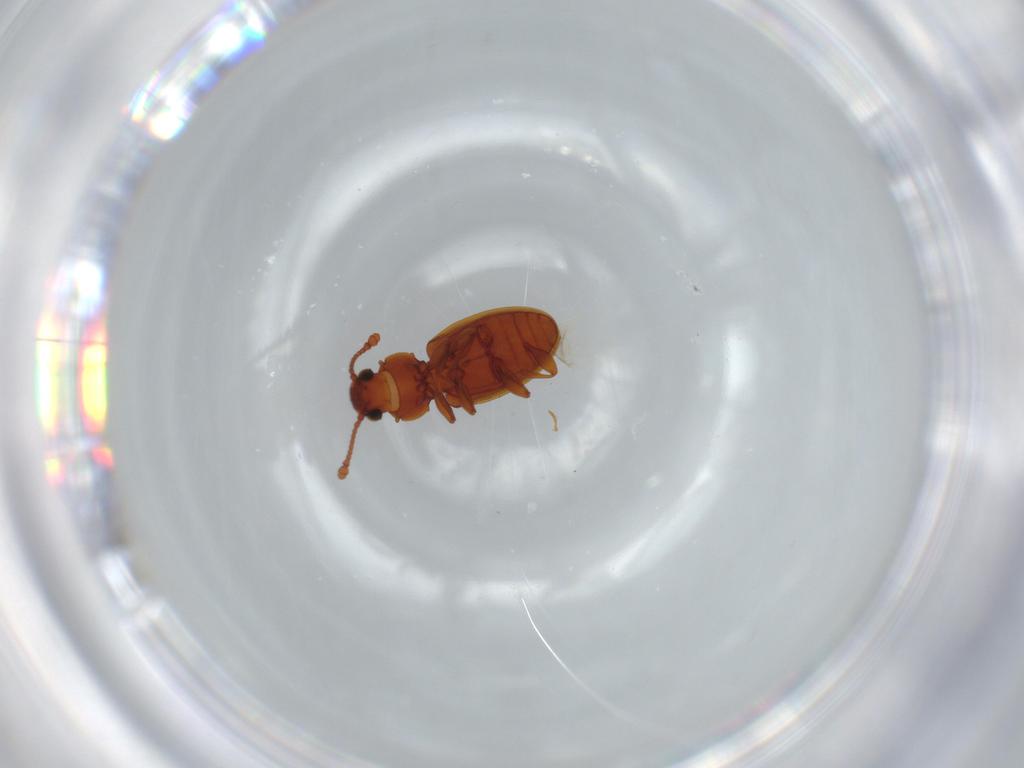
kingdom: Animalia
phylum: Arthropoda
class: Insecta
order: Coleoptera
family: Silvanidae
